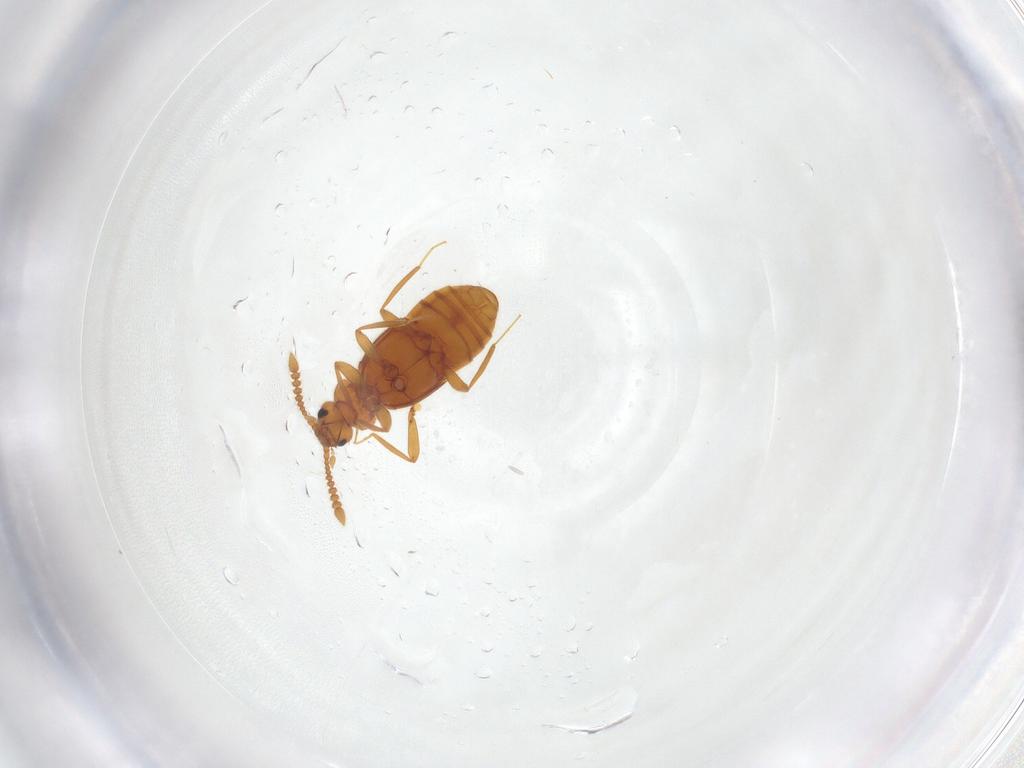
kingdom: Animalia
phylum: Arthropoda
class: Insecta
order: Coleoptera
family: Staphylinidae
